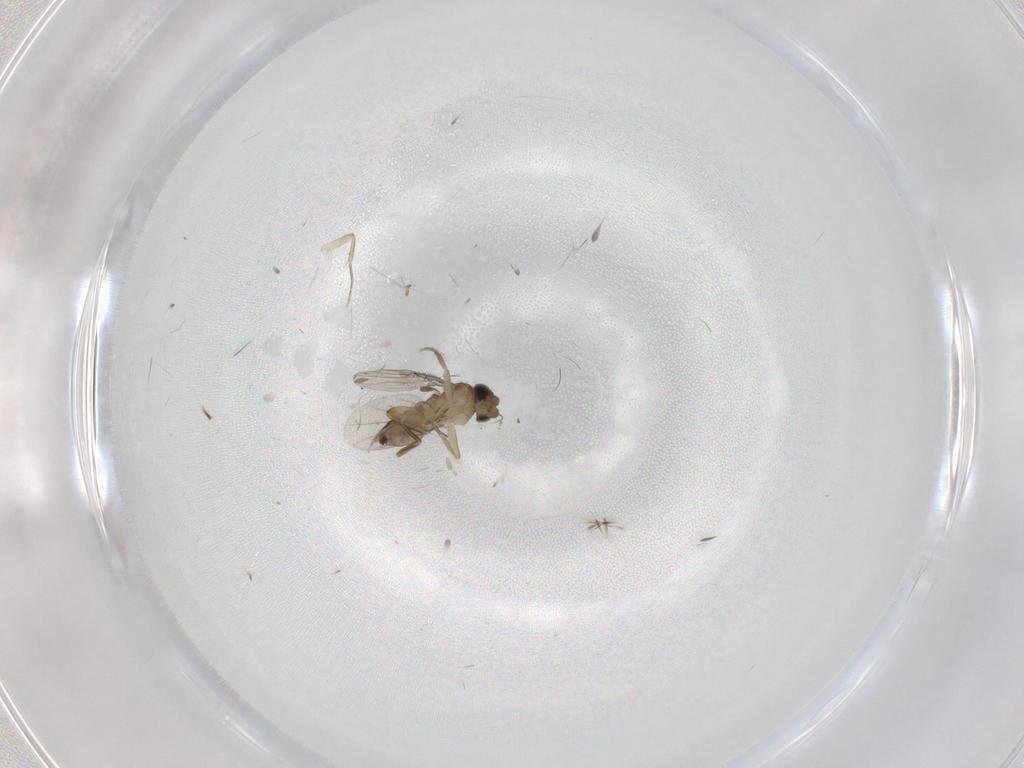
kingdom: Animalia
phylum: Arthropoda
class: Insecta
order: Diptera
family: Phoridae
